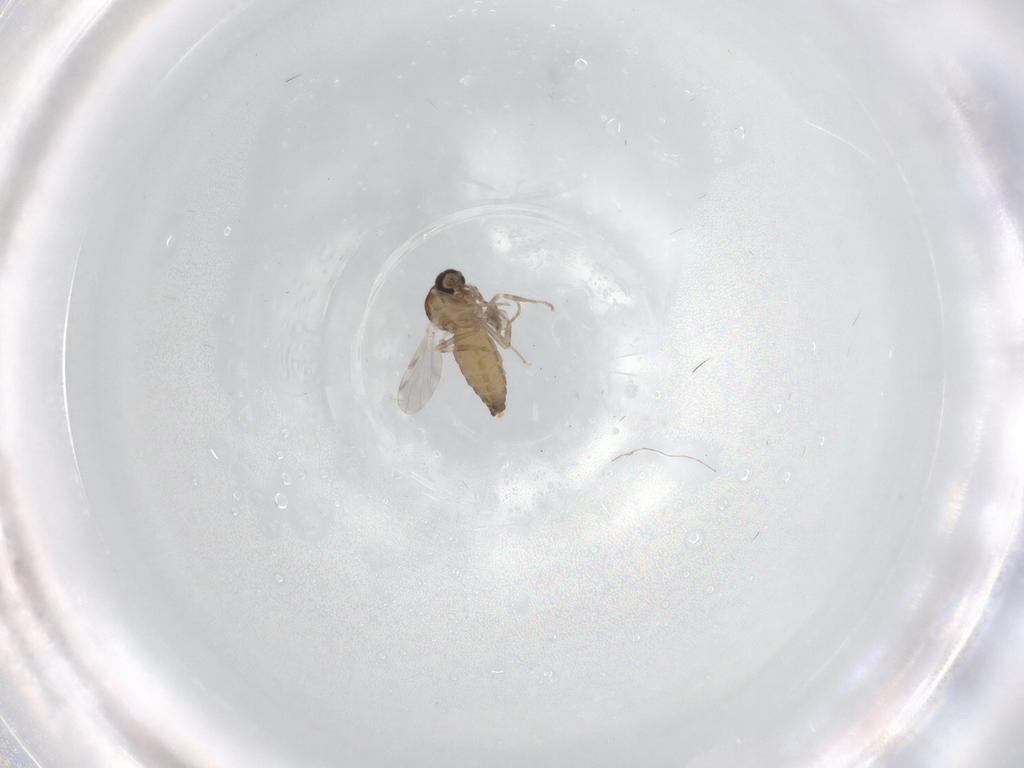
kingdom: Animalia
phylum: Arthropoda
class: Insecta
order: Diptera
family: Ceratopogonidae
